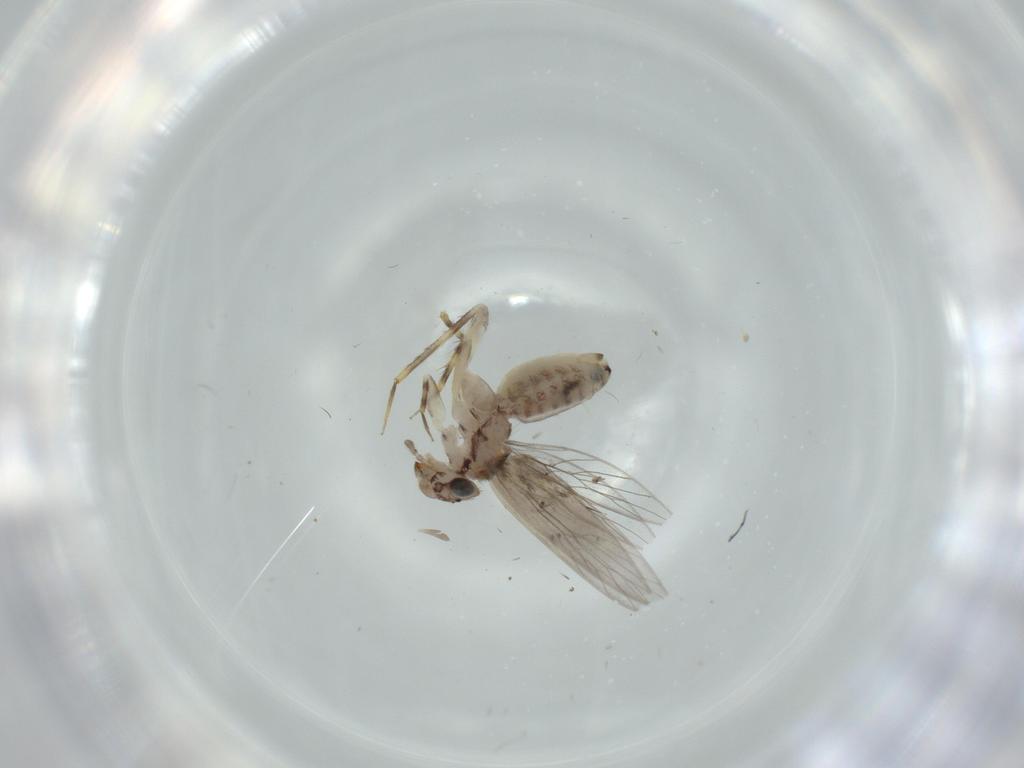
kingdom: Animalia
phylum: Arthropoda
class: Insecta
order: Psocodea
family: Lepidopsocidae
